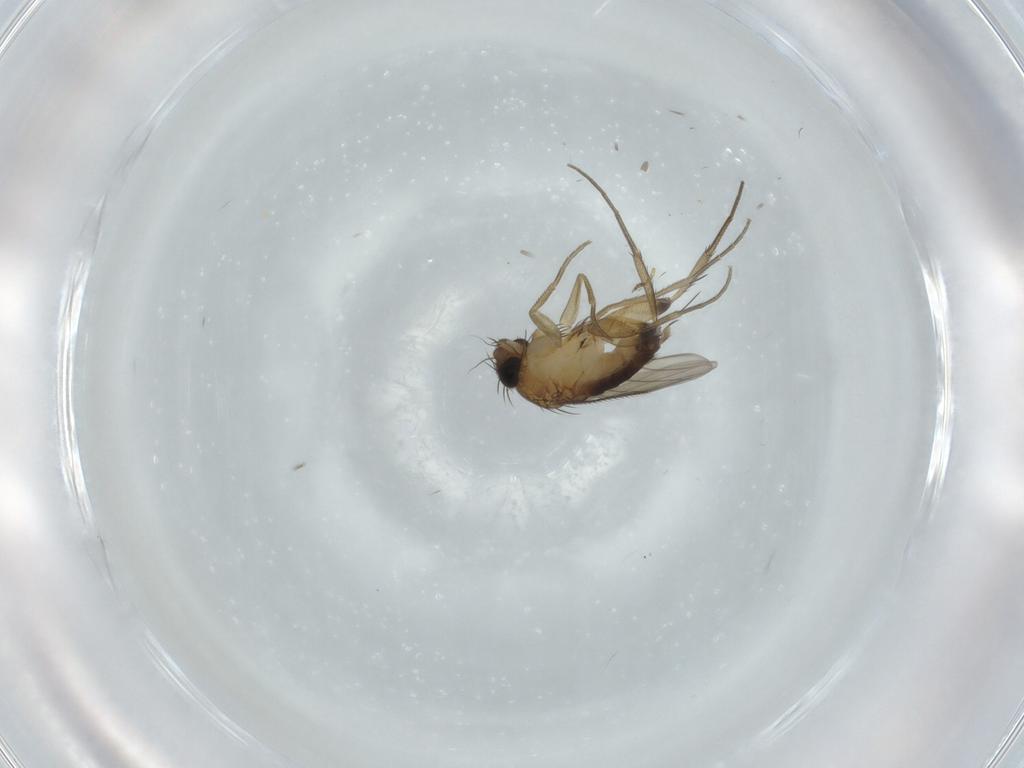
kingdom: Animalia
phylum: Arthropoda
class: Insecta
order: Diptera
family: Phoridae
